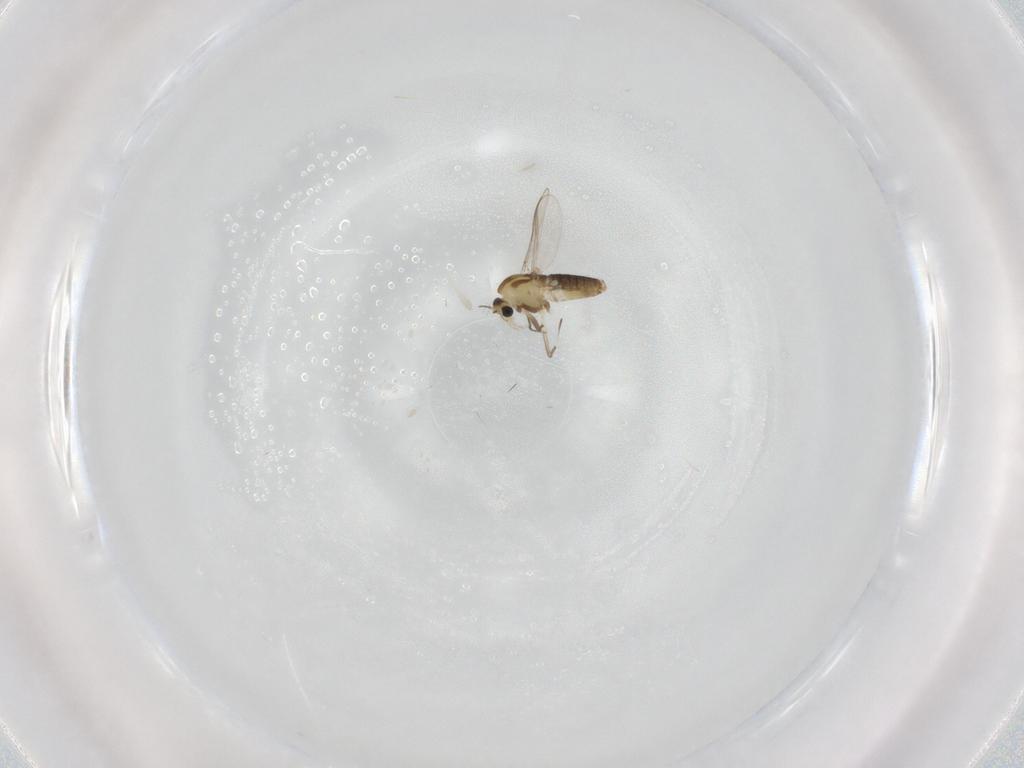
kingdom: Animalia
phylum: Arthropoda
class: Insecta
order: Diptera
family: Chironomidae
